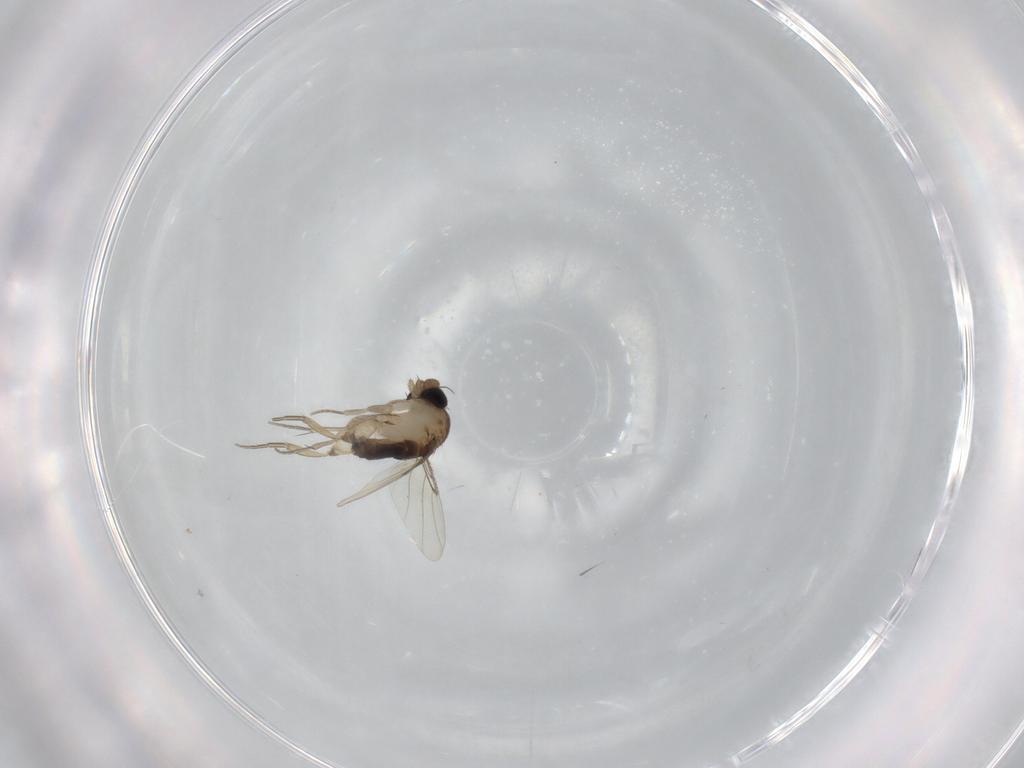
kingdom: Animalia
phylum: Arthropoda
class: Insecta
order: Diptera
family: Phoridae
